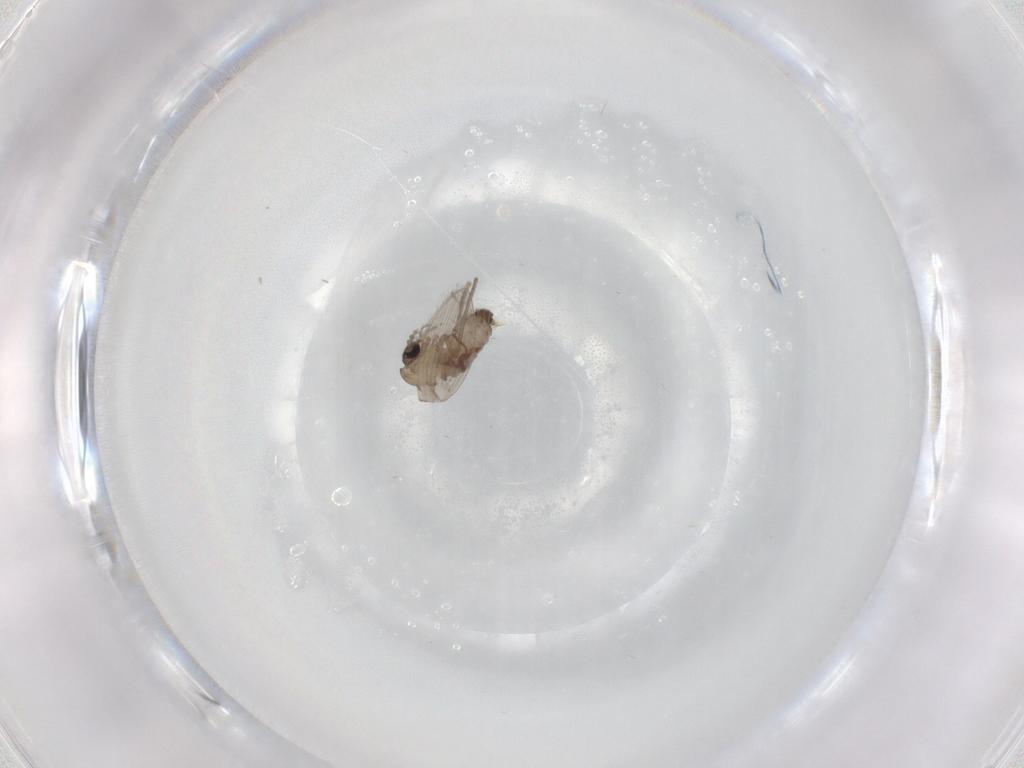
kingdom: Animalia
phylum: Arthropoda
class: Insecta
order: Diptera
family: Psychodidae
